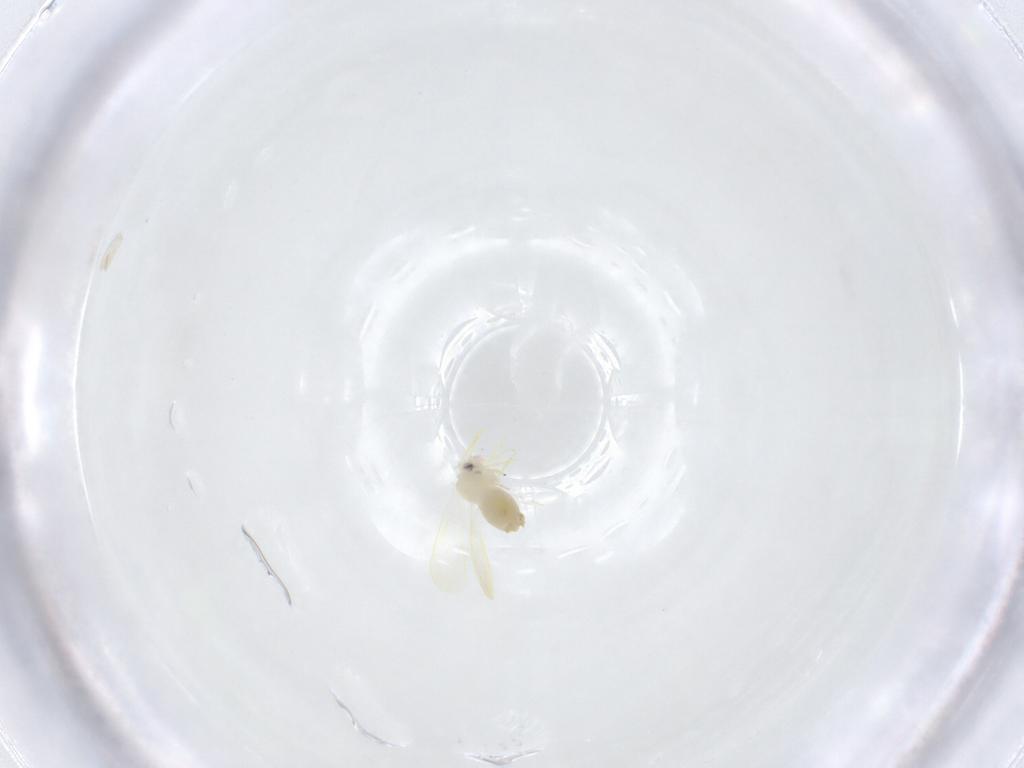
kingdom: Animalia
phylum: Arthropoda
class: Insecta
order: Hemiptera
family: Aleyrodidae
